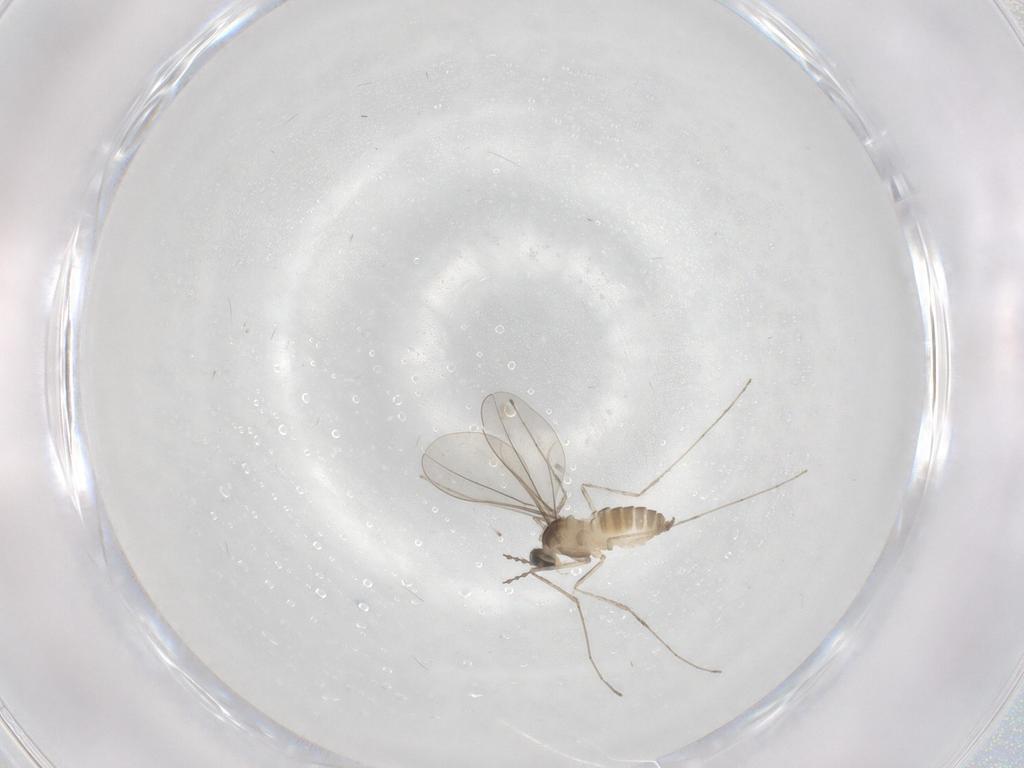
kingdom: Animalia
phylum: Arthropoda
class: Insecta
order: Diptera
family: Cecidomyiidae
